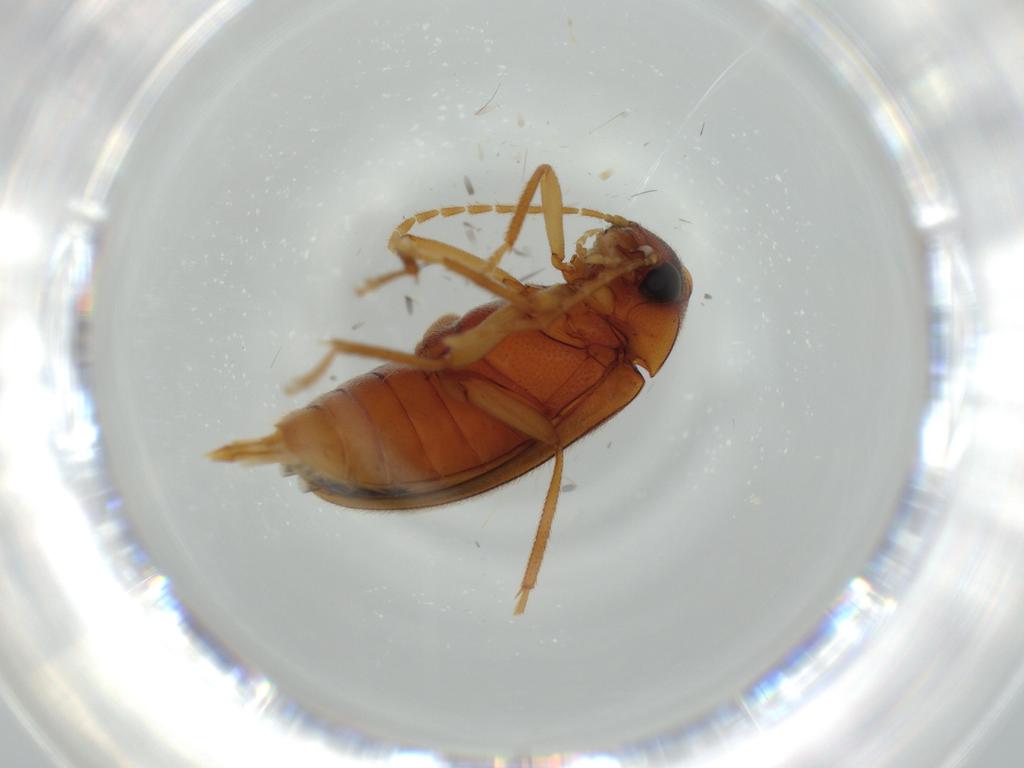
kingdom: Animalia
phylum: Arthropoda
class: Insecta
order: Coleoptera
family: Ptilodactylidae
